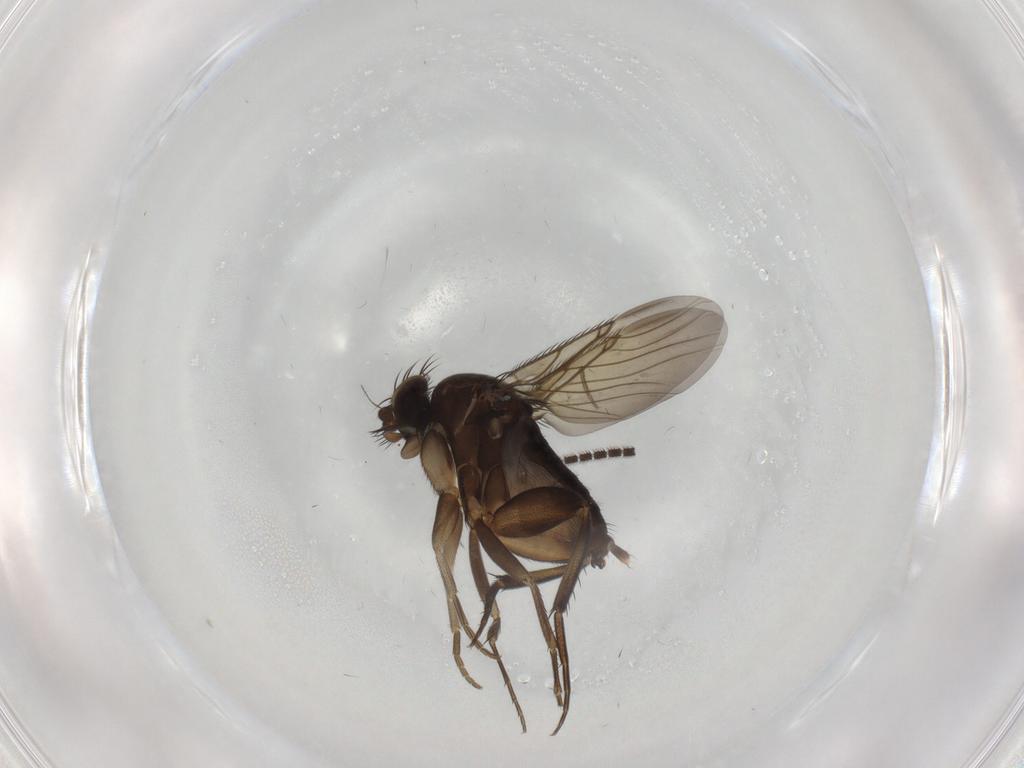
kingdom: Animalia
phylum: Arthropoda
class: Insecta
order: Diptera
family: Phoridae
